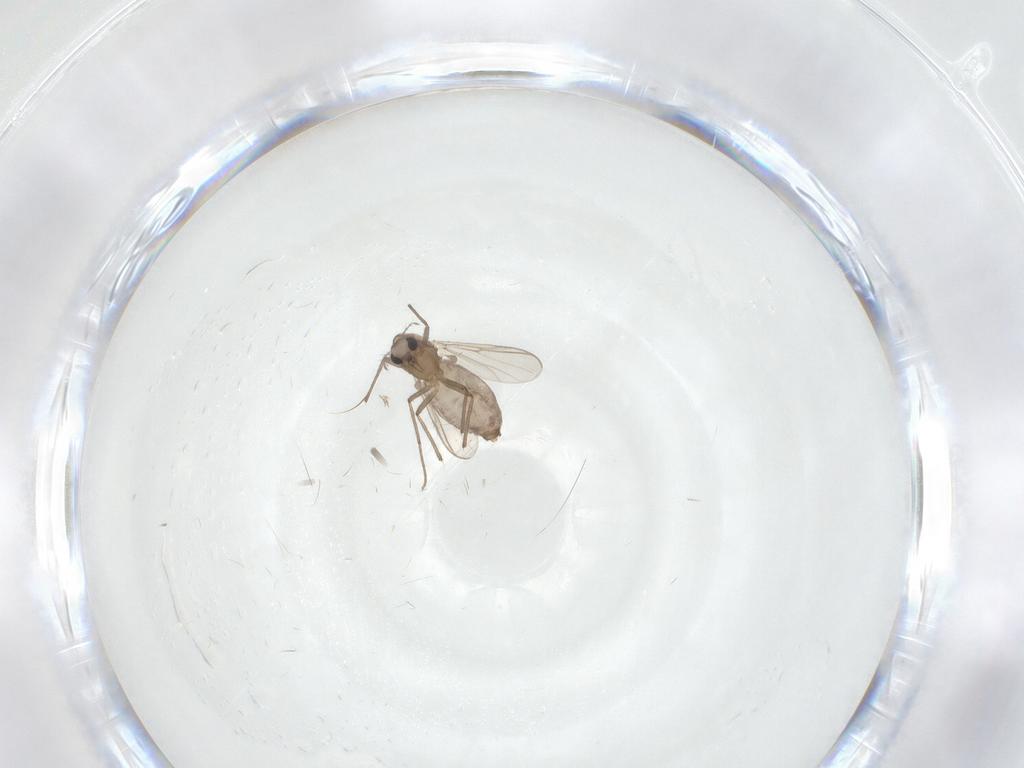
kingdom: Animalia
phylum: Arthropoda
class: Insecta
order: Diptera
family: Chironomidae
